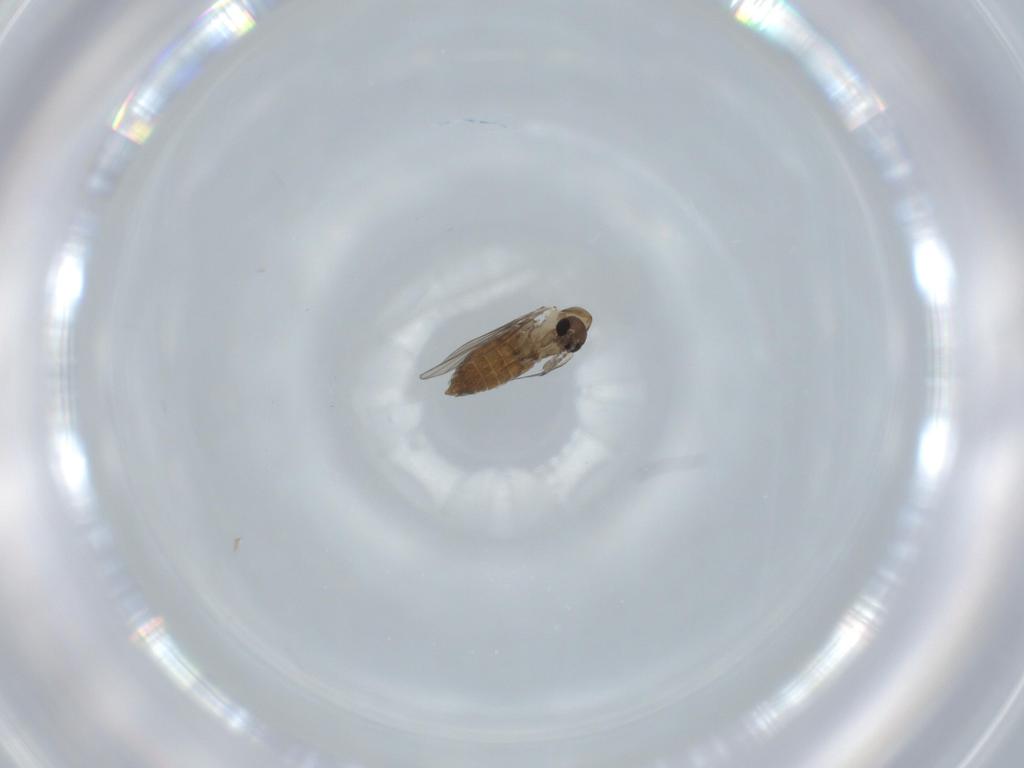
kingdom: Animalia
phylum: Arthropoda
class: Insecta
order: Diptera
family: Psychodidae
